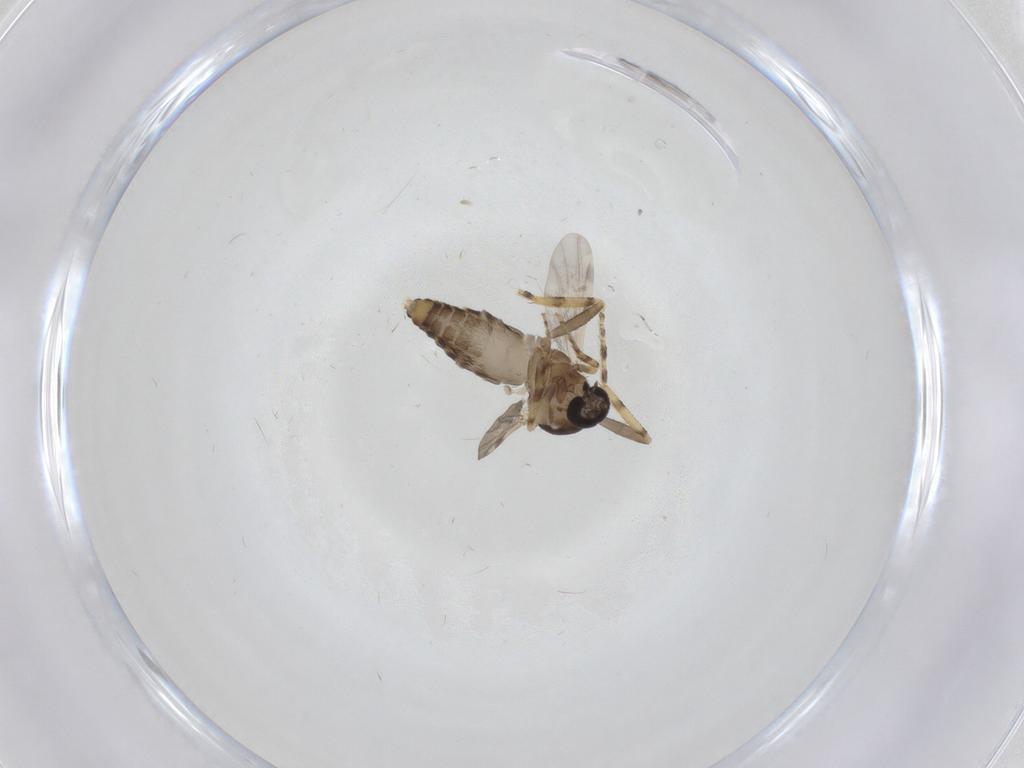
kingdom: Animalia
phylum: Arthropoda
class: Insecta
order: Diptera
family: Ceratopogonidae
